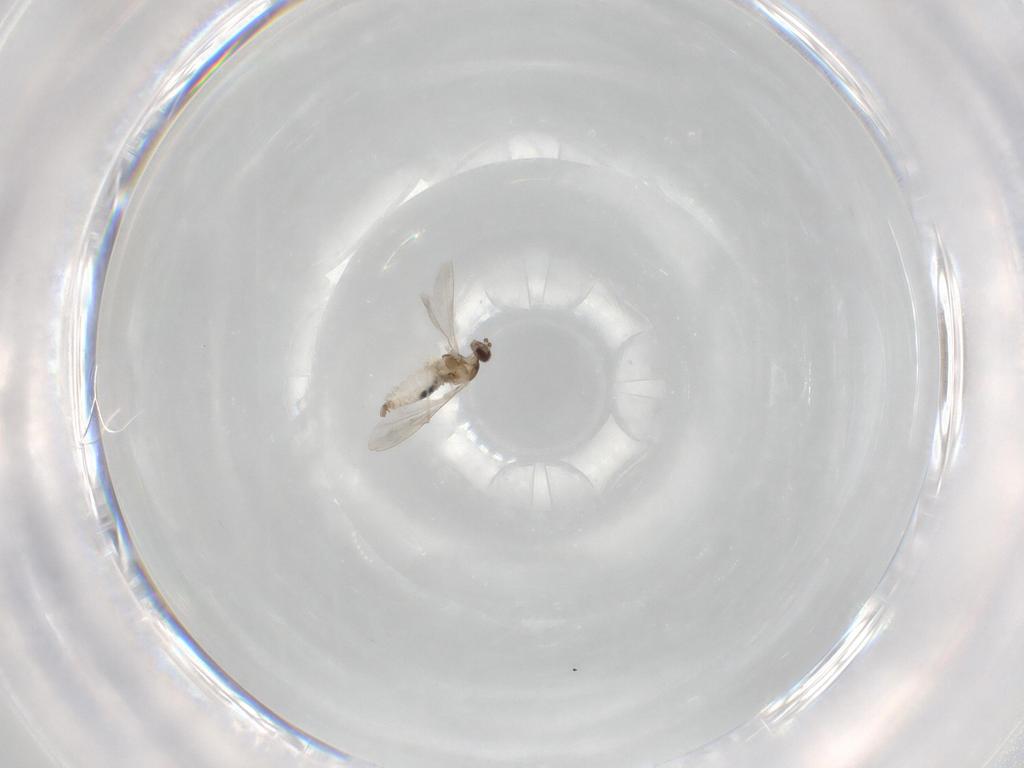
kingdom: Animalia
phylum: Arthropoda
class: Insecta
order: Diptera
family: Cecidomyiidae
